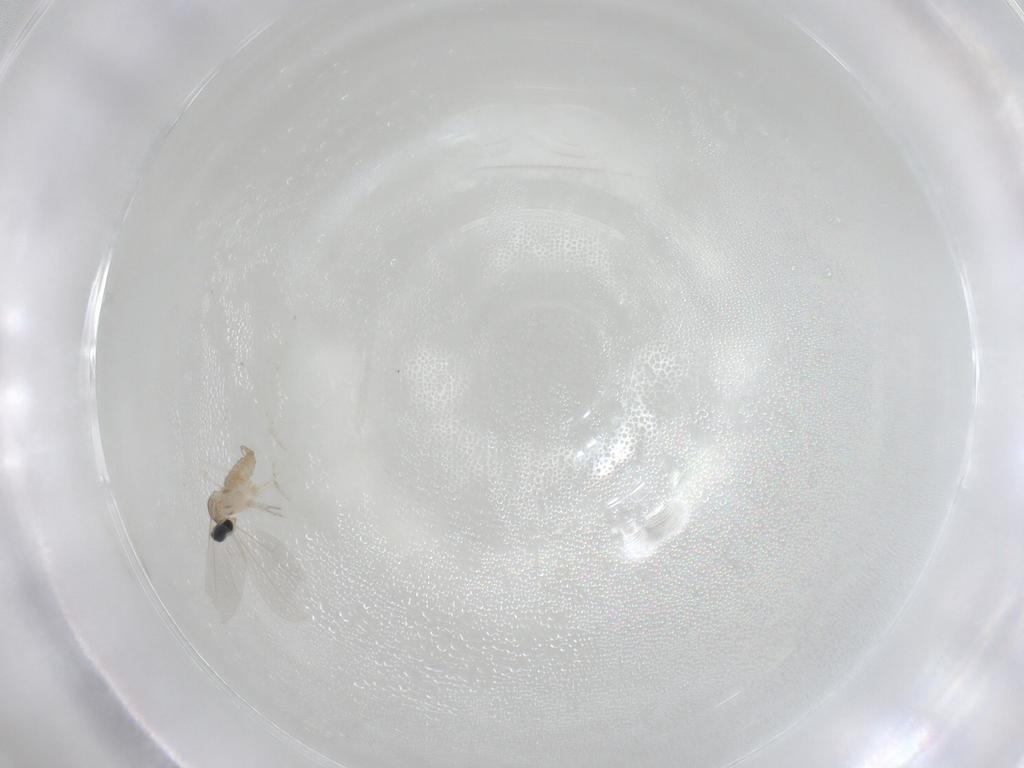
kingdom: Animalia
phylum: Arthropoda
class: Insecta
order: Diptera
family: Cecidomyiidae
